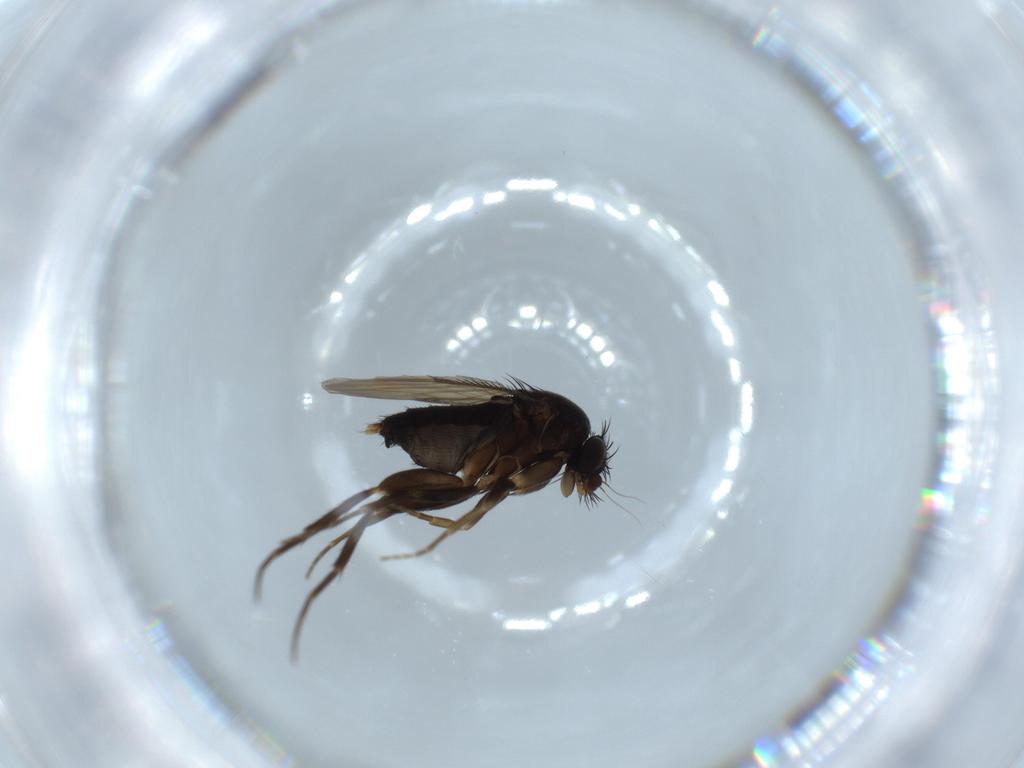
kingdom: Animalia
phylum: Arthropoda
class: Insecta
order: Diptera
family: Phoridae
